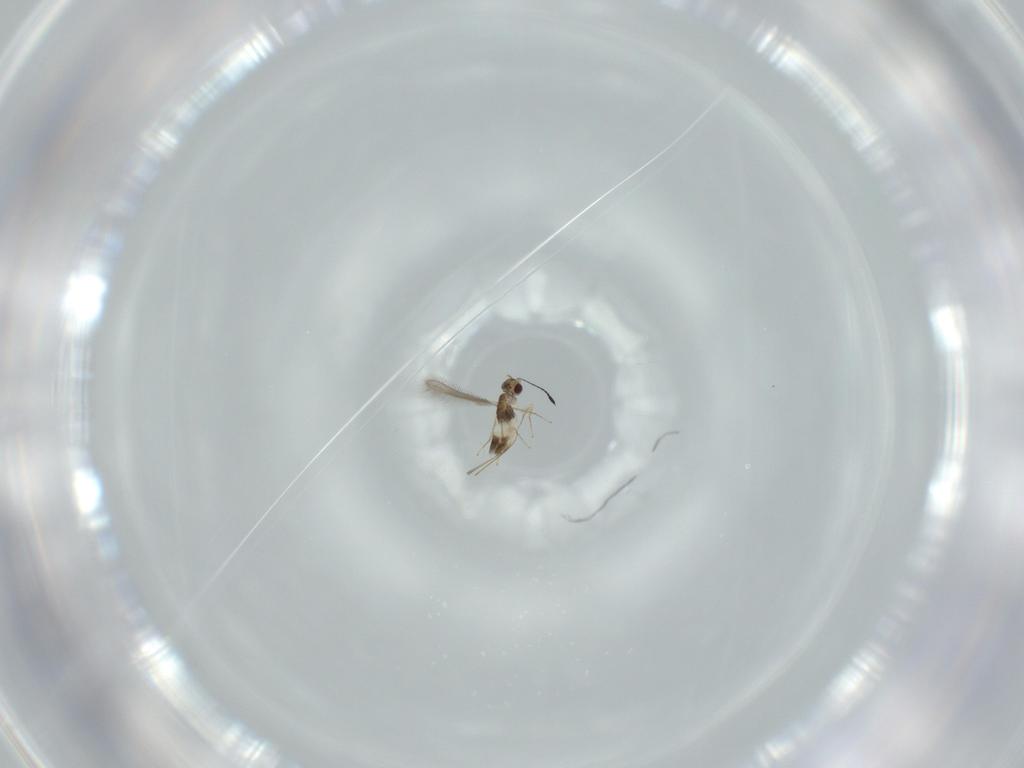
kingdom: Animalia
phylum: Arthropoda
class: Insecta
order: Hymenoptera
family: Mymaridae
